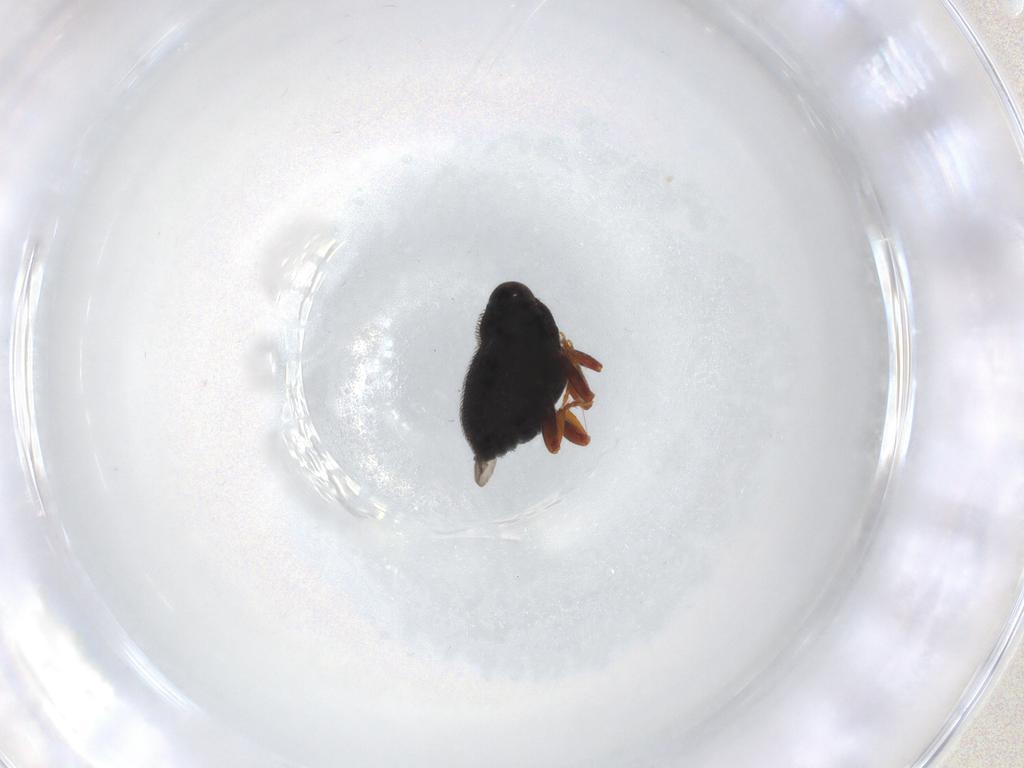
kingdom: Animalia
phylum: Arthropoda
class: Insecta
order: Coleoptera
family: Curculionidae
